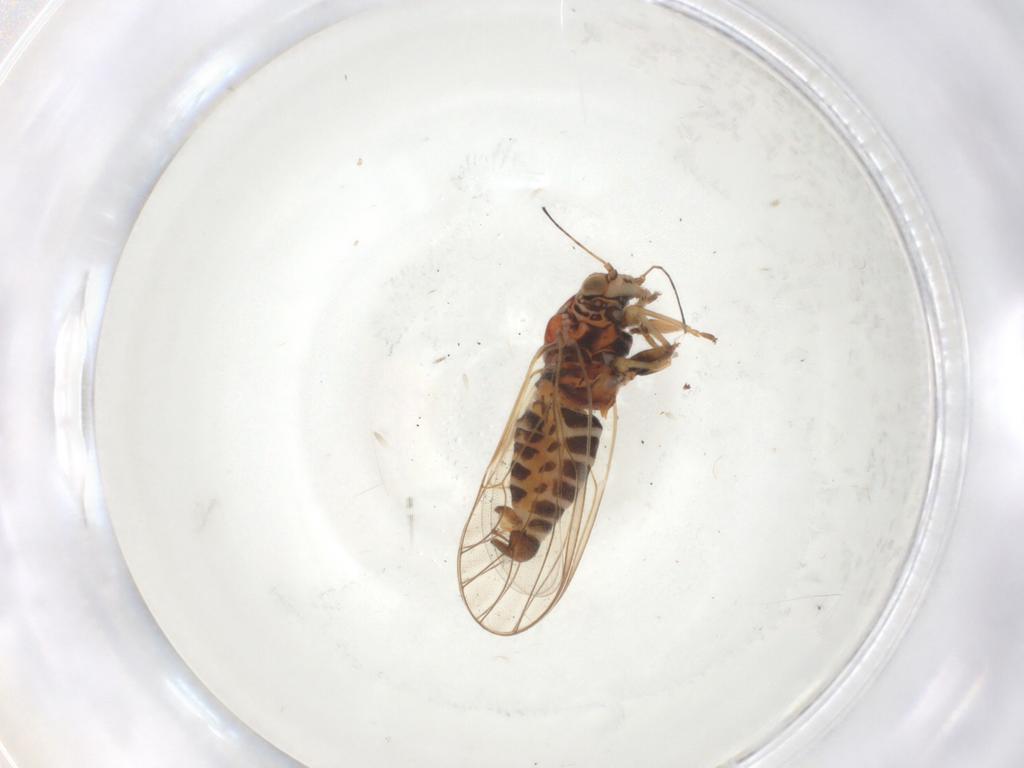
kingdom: Animalia
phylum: Arthropoda
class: Insecta
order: Hemiptera
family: Psyllidae
